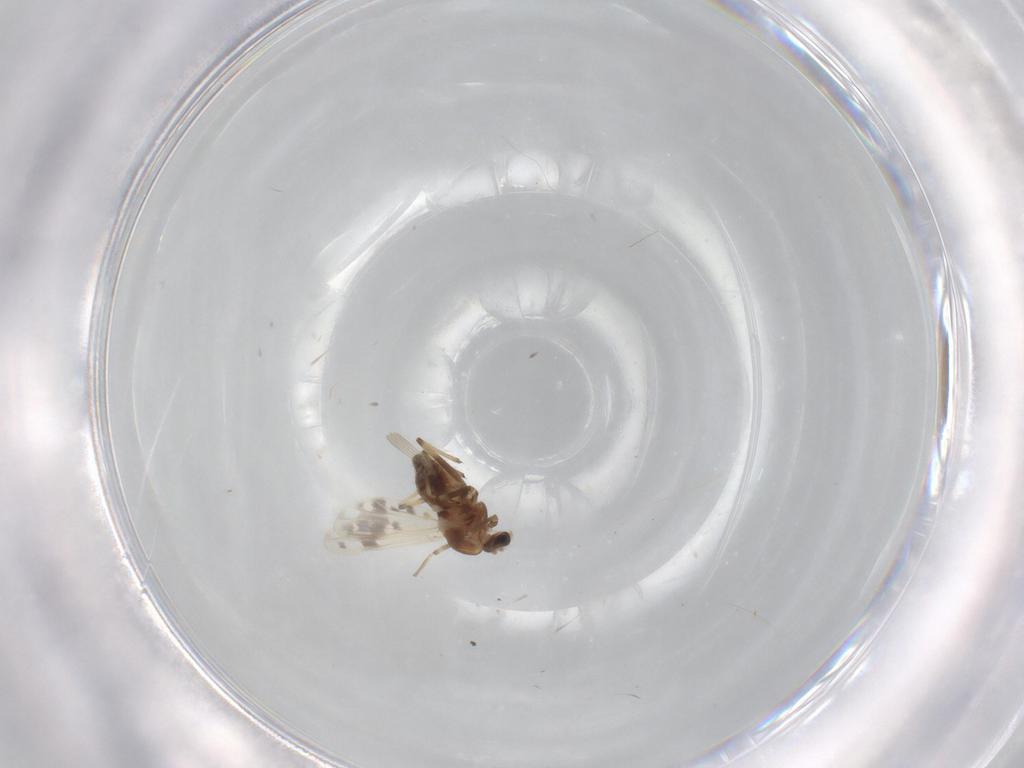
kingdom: Animalia
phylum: Arthropoda
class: Insecta
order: Diptera
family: Chironomidae
